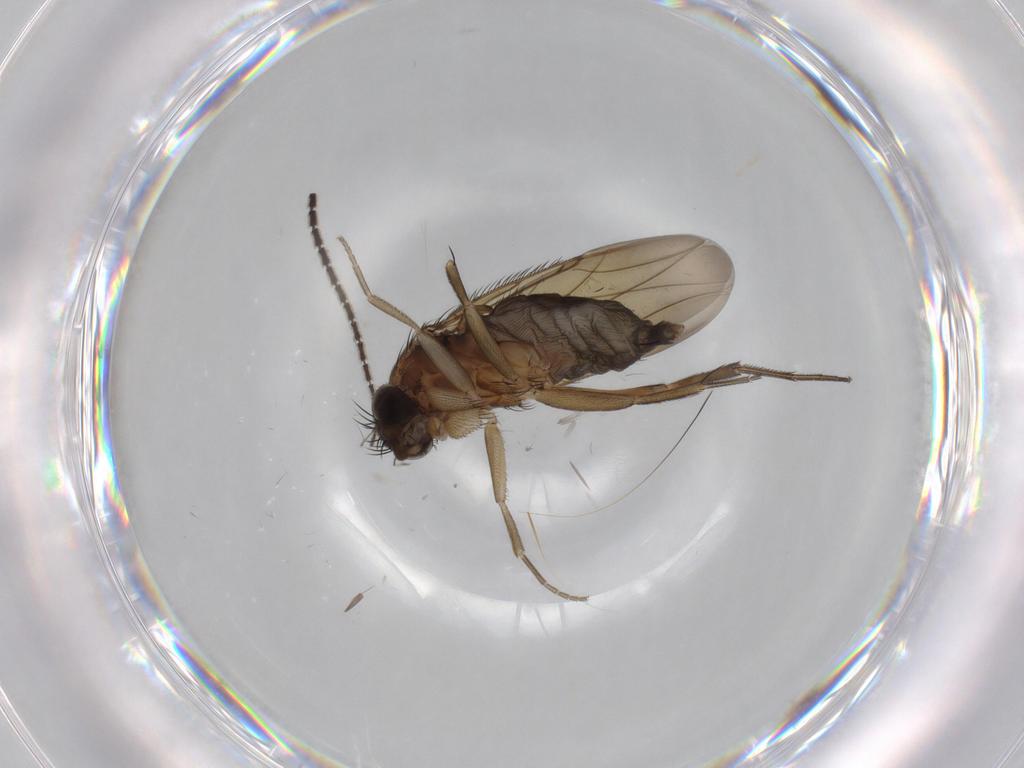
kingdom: Animalia
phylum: Arthropoda
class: Insecta
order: Diptera
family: Phoridae
